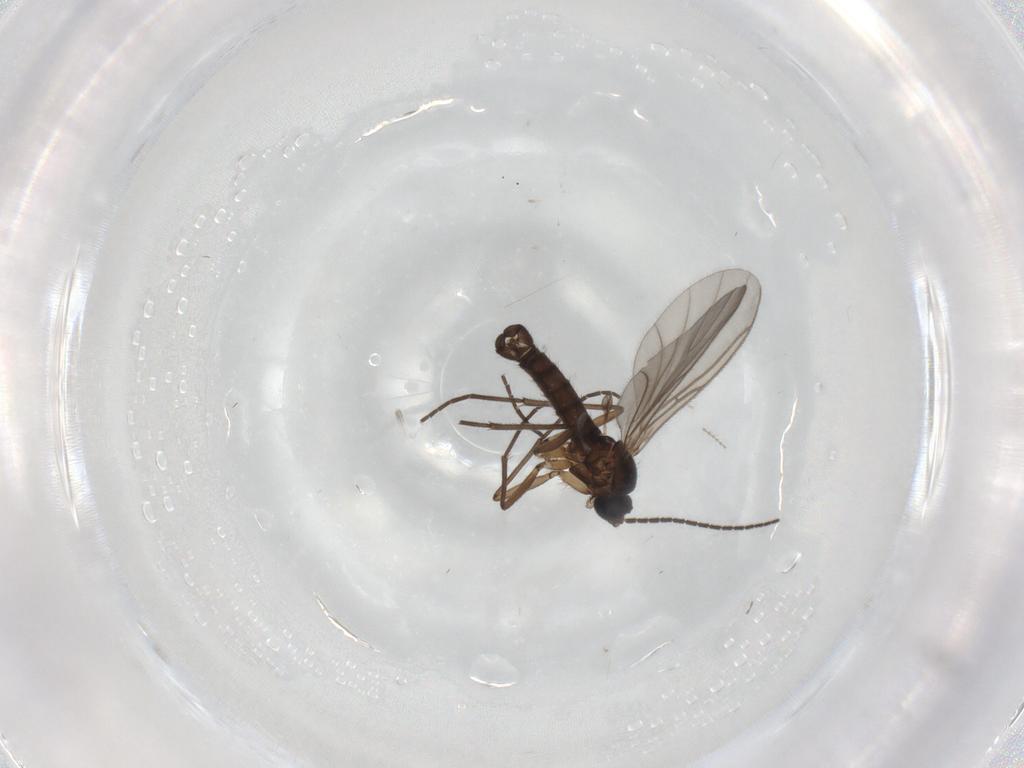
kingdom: Animalia
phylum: Arthropoda
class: Insecta
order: Diptera
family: Sciaridae
